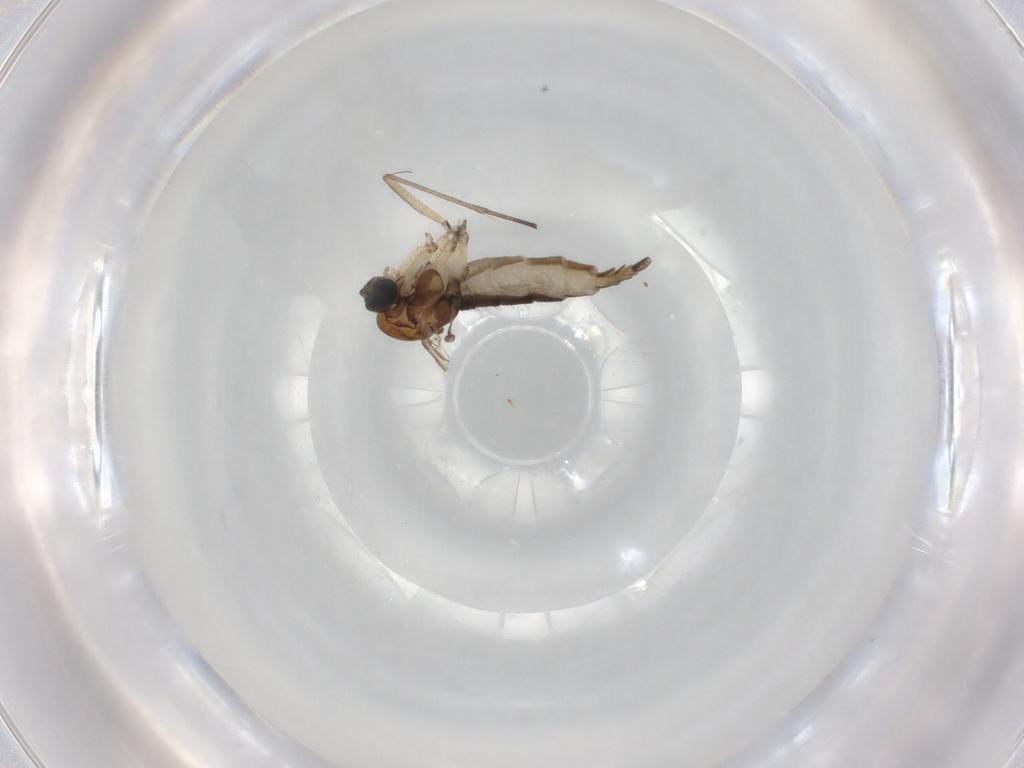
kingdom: Animalia
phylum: Arthropoda
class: Insecta
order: Diptera
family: Sciaridae
